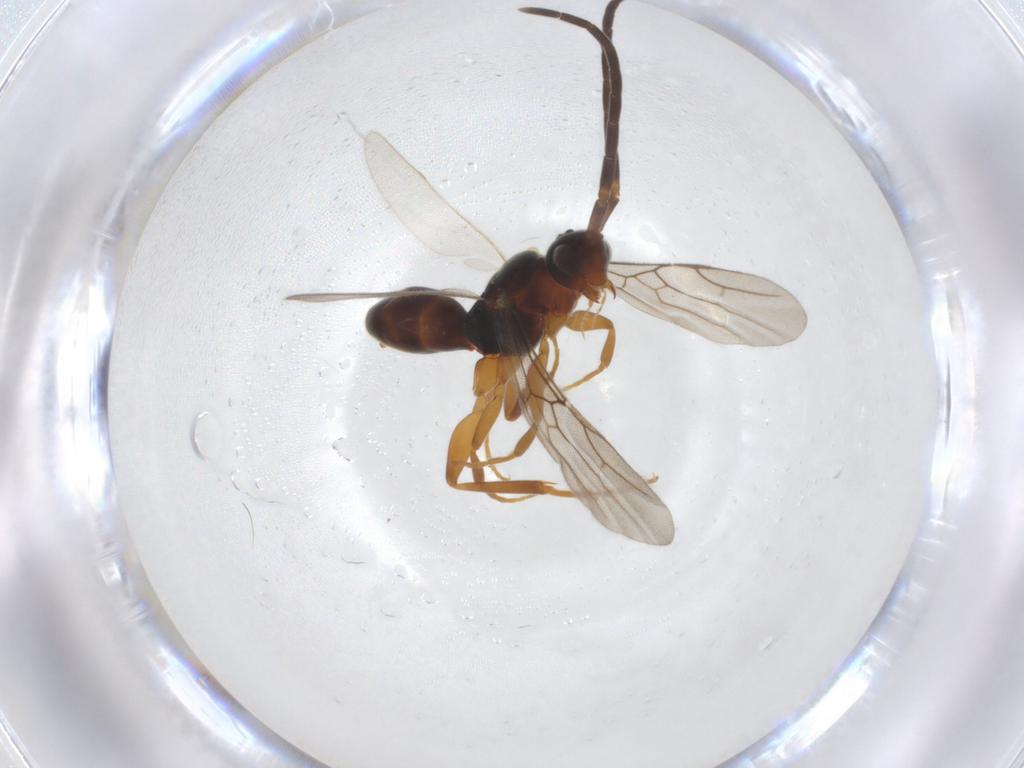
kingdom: Animalia
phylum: Arthropoda
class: Insecta
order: Hymenoptera
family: Embolemidae
